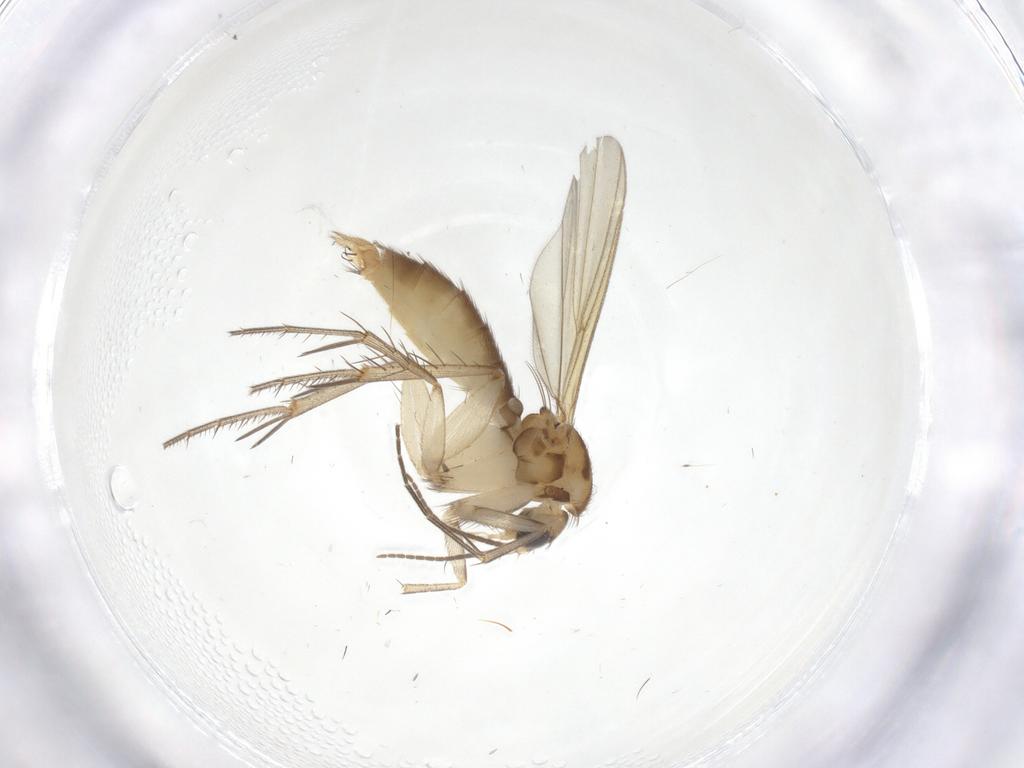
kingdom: Animalia
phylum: Arthropoda
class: Insecta
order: Diptera
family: Mycetophilidae
